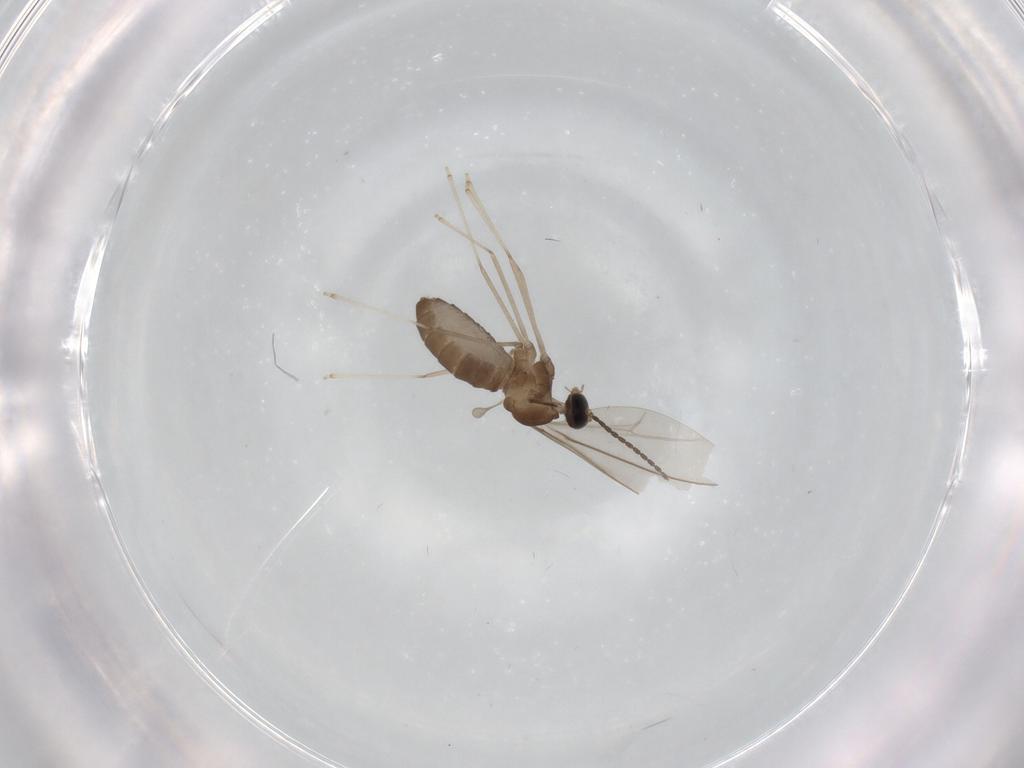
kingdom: Animalia
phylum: Arthropoda
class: Insecta
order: Diptera
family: Cecidomyiidae
